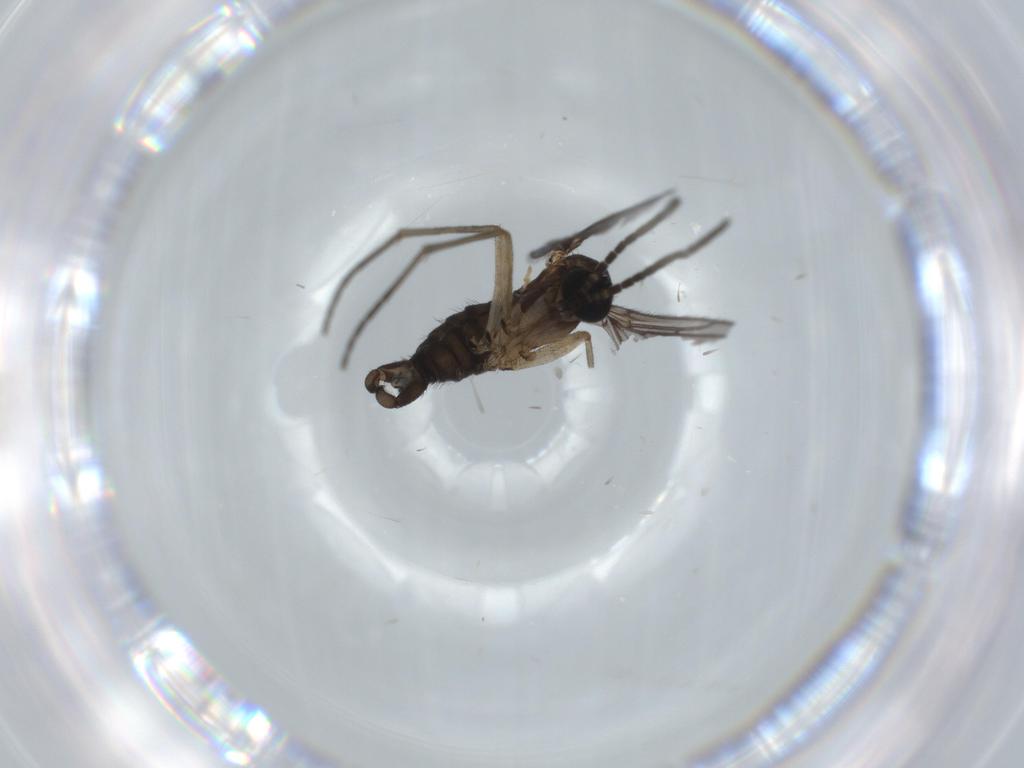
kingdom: Animalia
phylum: Arthropoda
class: Insecta
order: Diptera
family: Sciaridae
